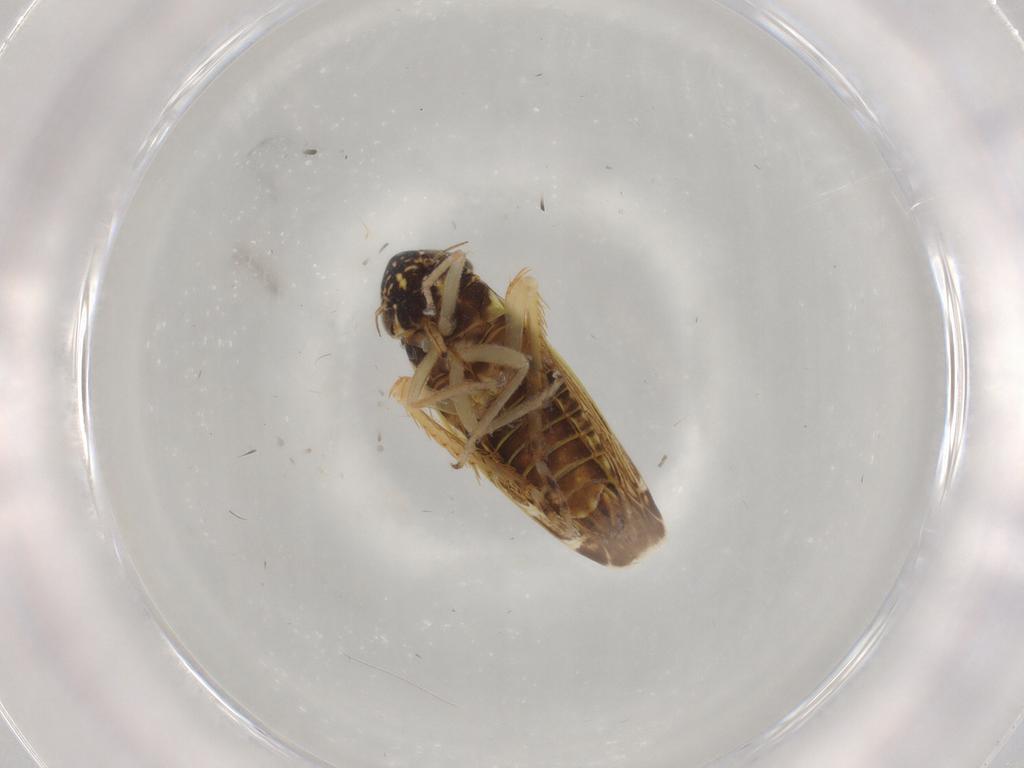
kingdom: Animalia
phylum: Arthropoda
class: Insecta
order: Hemiptera
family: Cicadellidae
